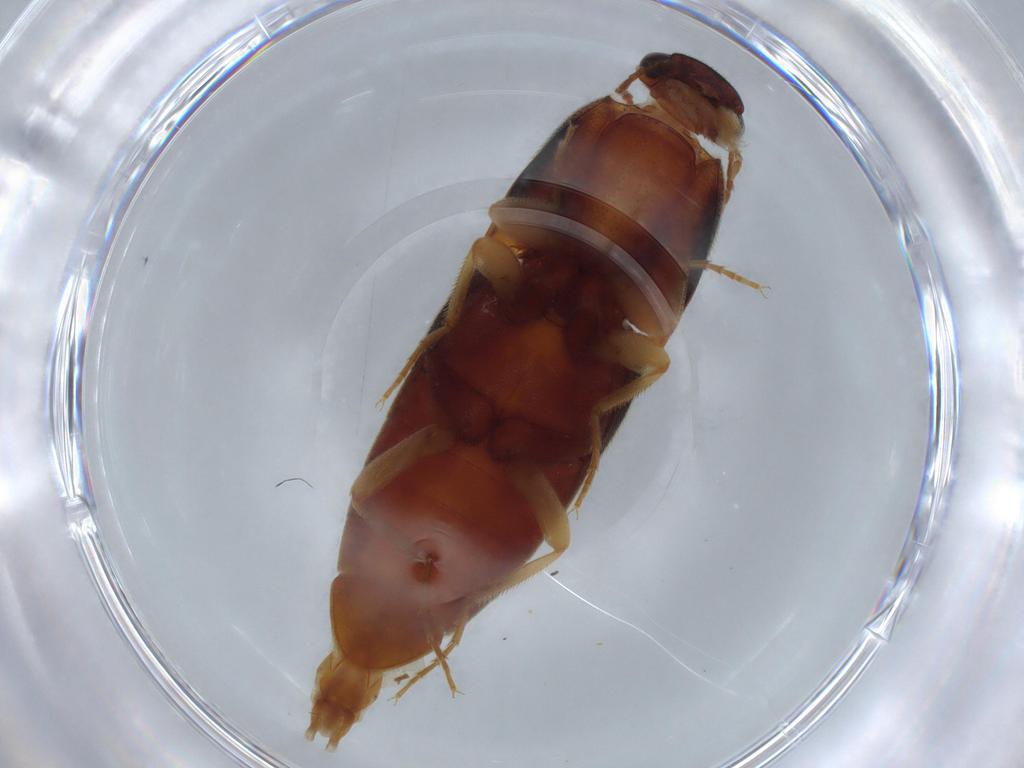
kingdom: Animalia
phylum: Arthropoda
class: Insecta
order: Coleoptera
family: Elateridae
